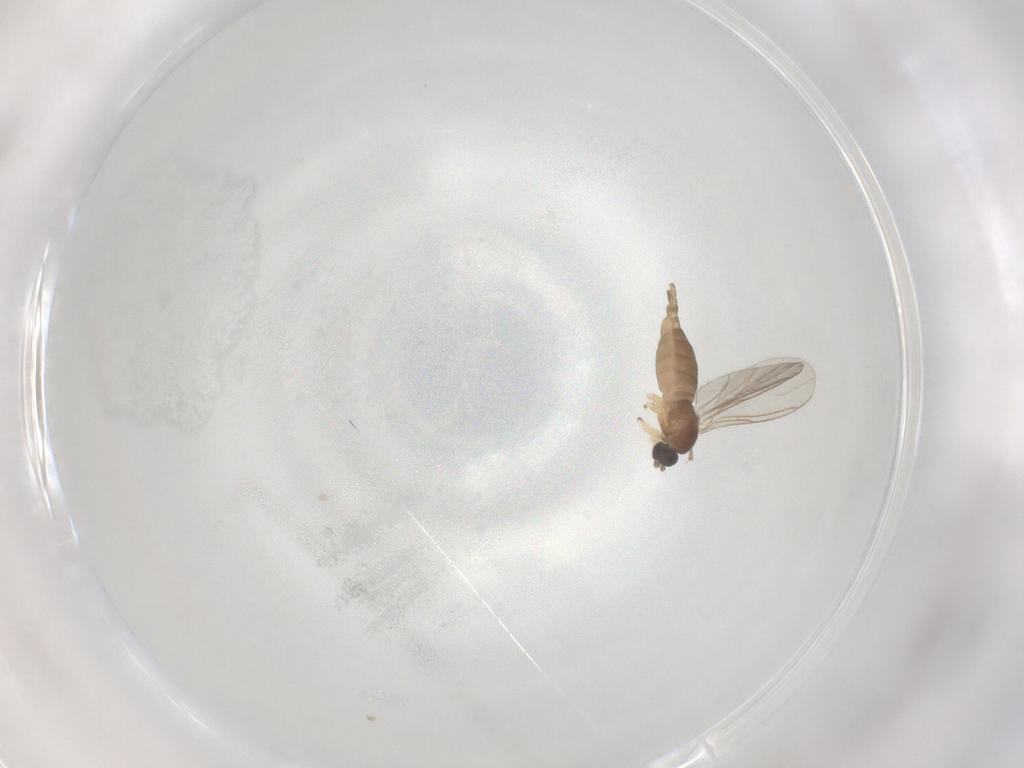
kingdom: Animalia
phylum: Arthropoda
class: Insecta
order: Diptera
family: Sciaridae
